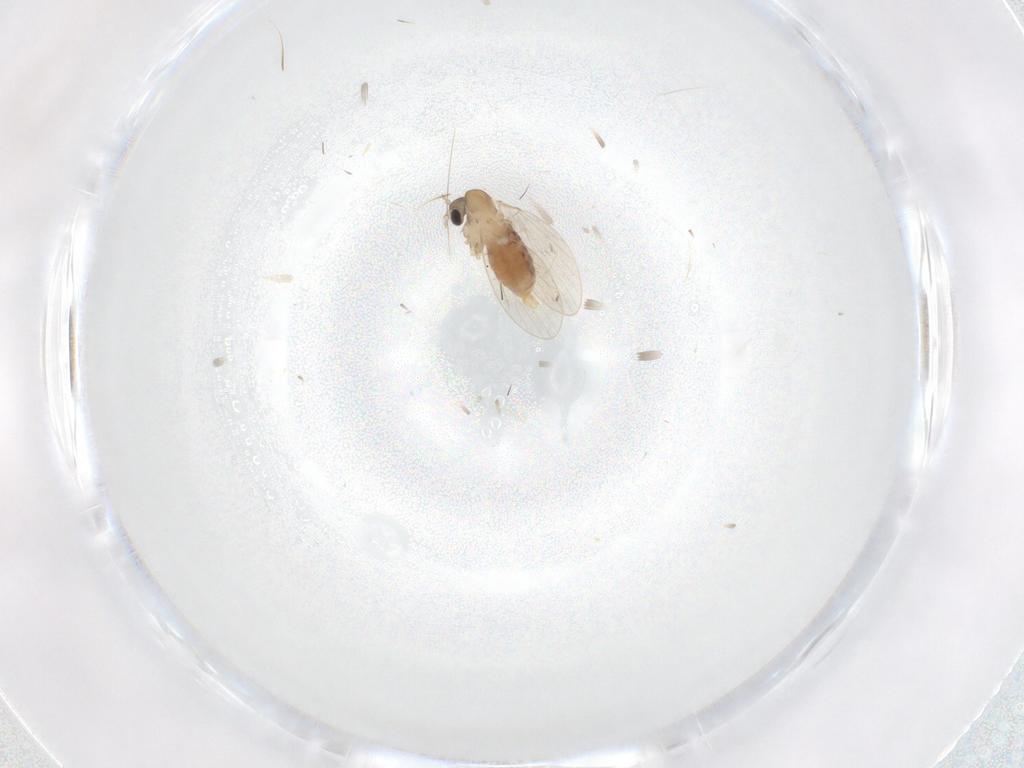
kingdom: Animalia
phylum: Arthropoda
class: Insecta
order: Diptera
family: Psychodidae
